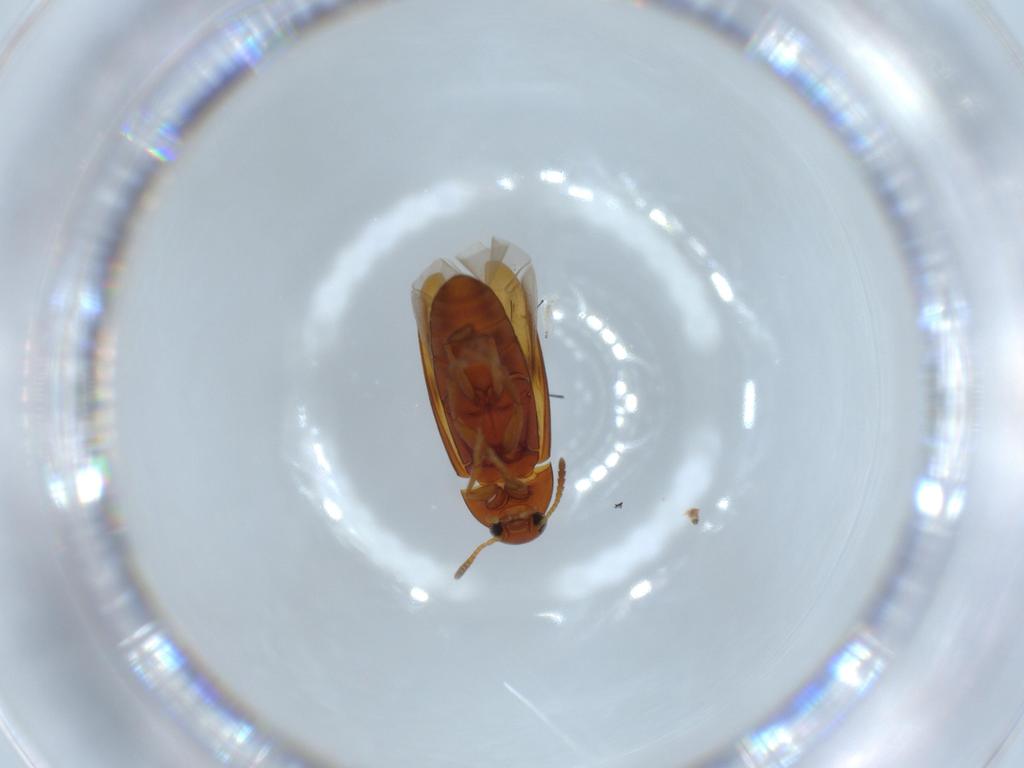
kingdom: Animalia
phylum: Arthropoda
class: Insecta
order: Coleoptera
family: Scraptiidae
